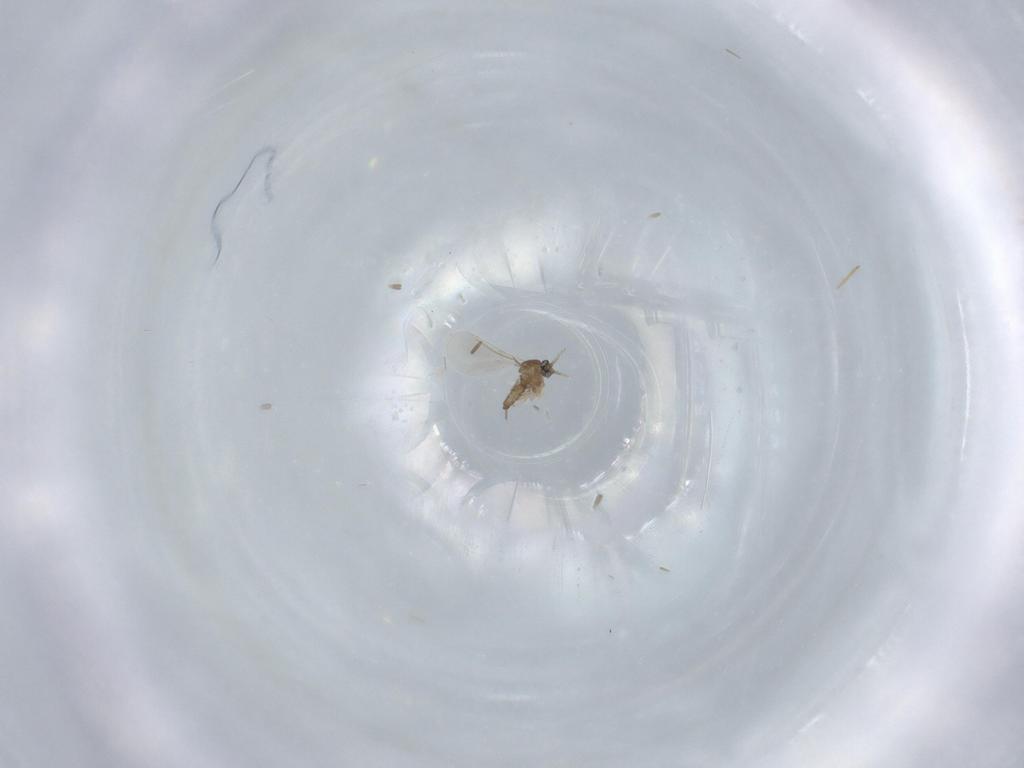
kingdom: Animalia
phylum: Arthropoda
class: Insecta
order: Diptera
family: Cecidomyiidae
